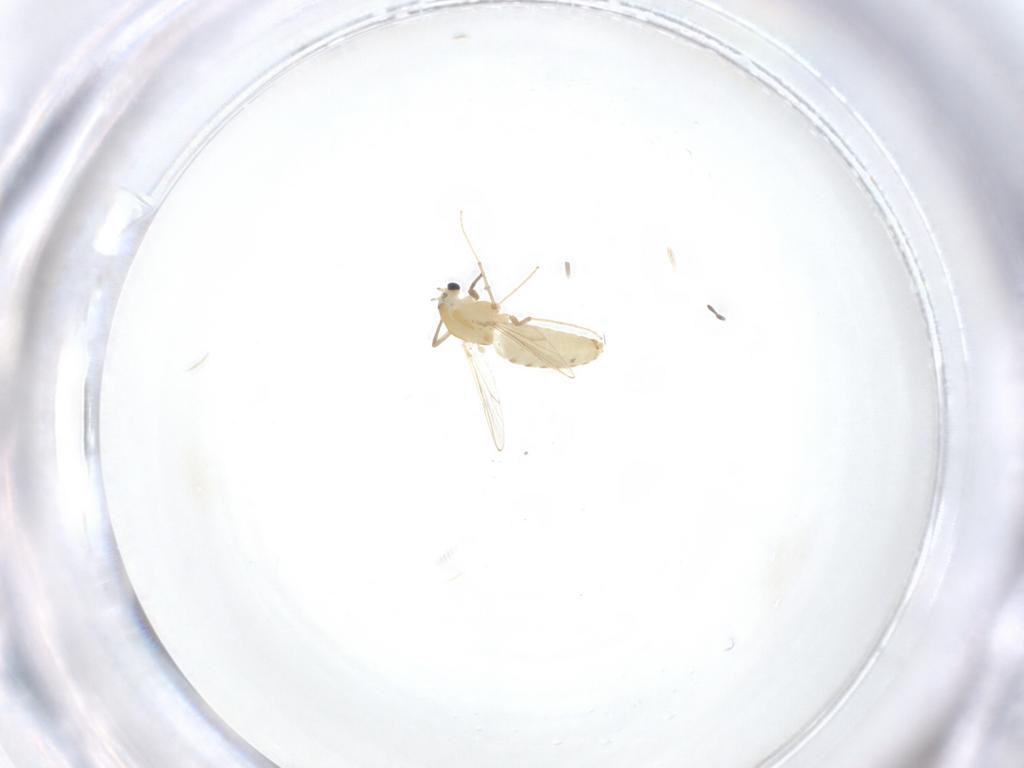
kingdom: Animalia
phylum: Arthropoda
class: Insecta
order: Diptera
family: Chironomidae
